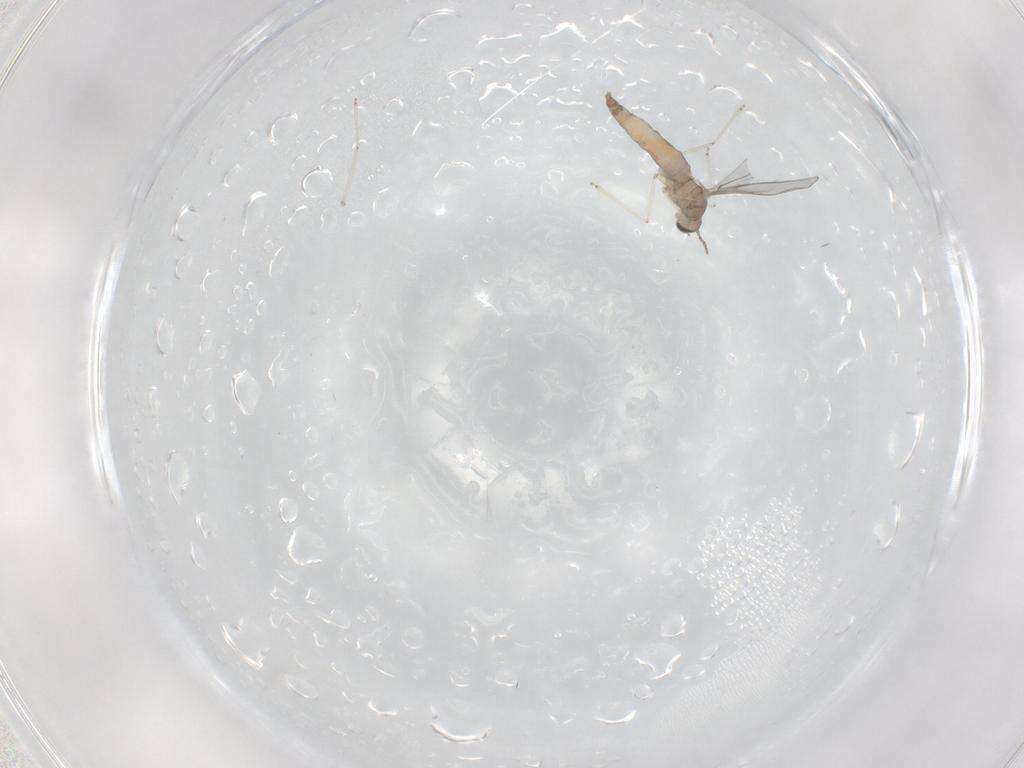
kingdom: Animalia
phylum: Arthropoda
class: Insecta
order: Diptera
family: Cecidomyiidae
